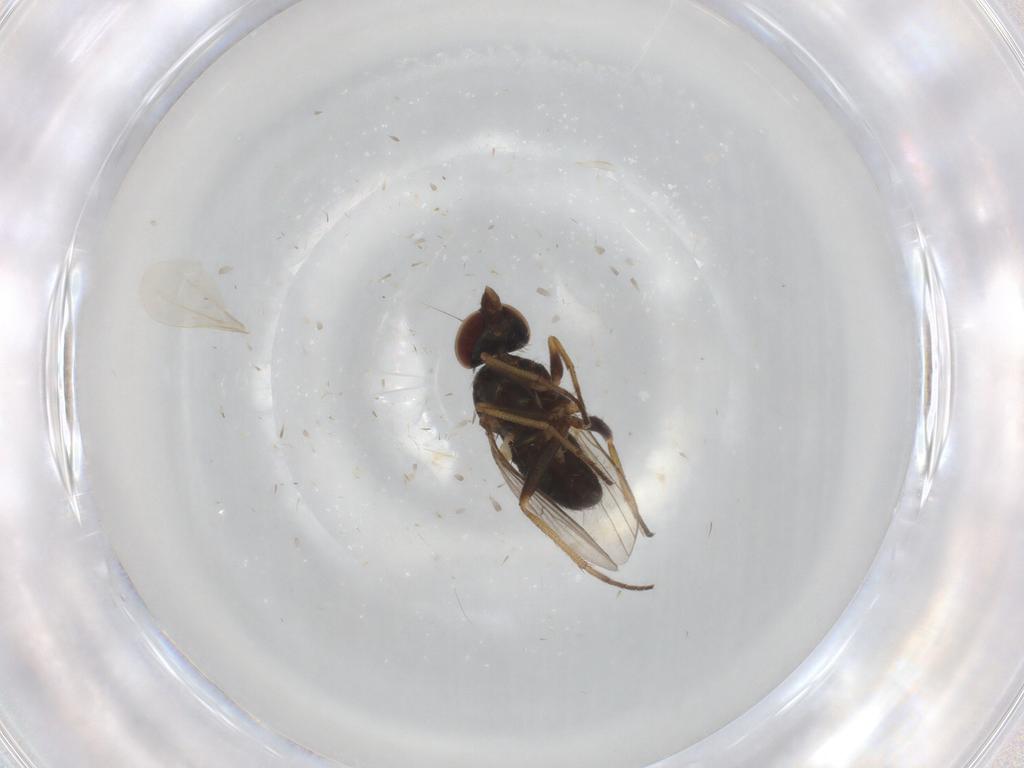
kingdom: Animalia
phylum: Arthropoda
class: Insecta
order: Diptera
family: Dolichopodidae
